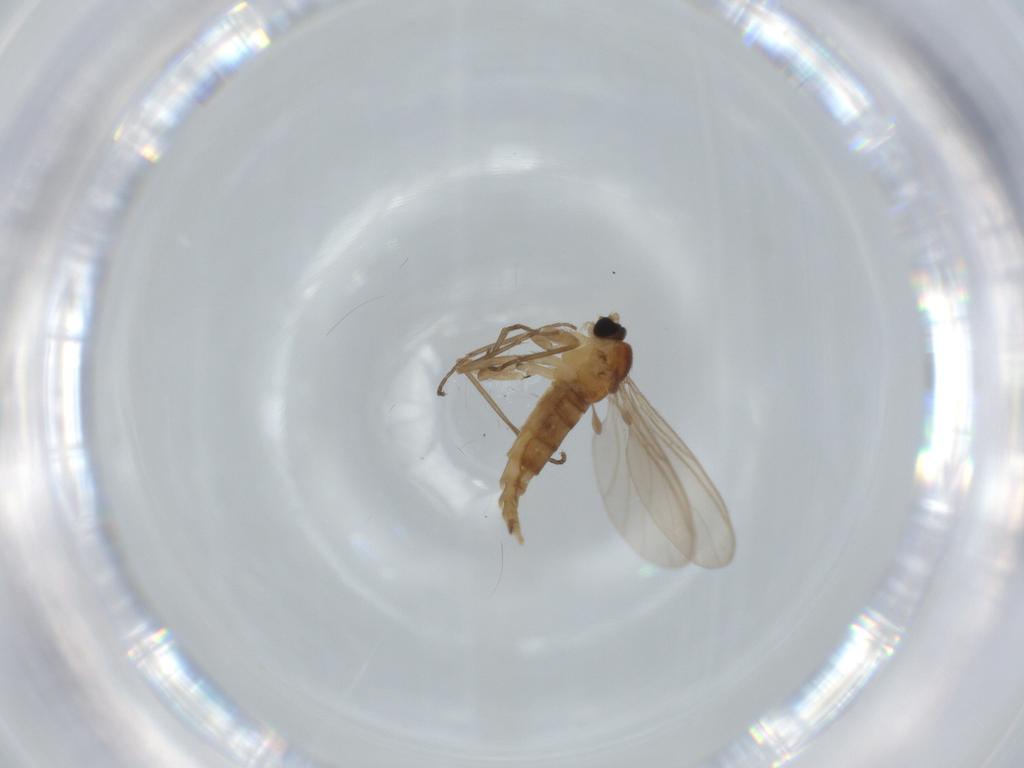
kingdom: Animalia
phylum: Arthropoda
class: Insecta
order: Diptera
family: Sciaridae
